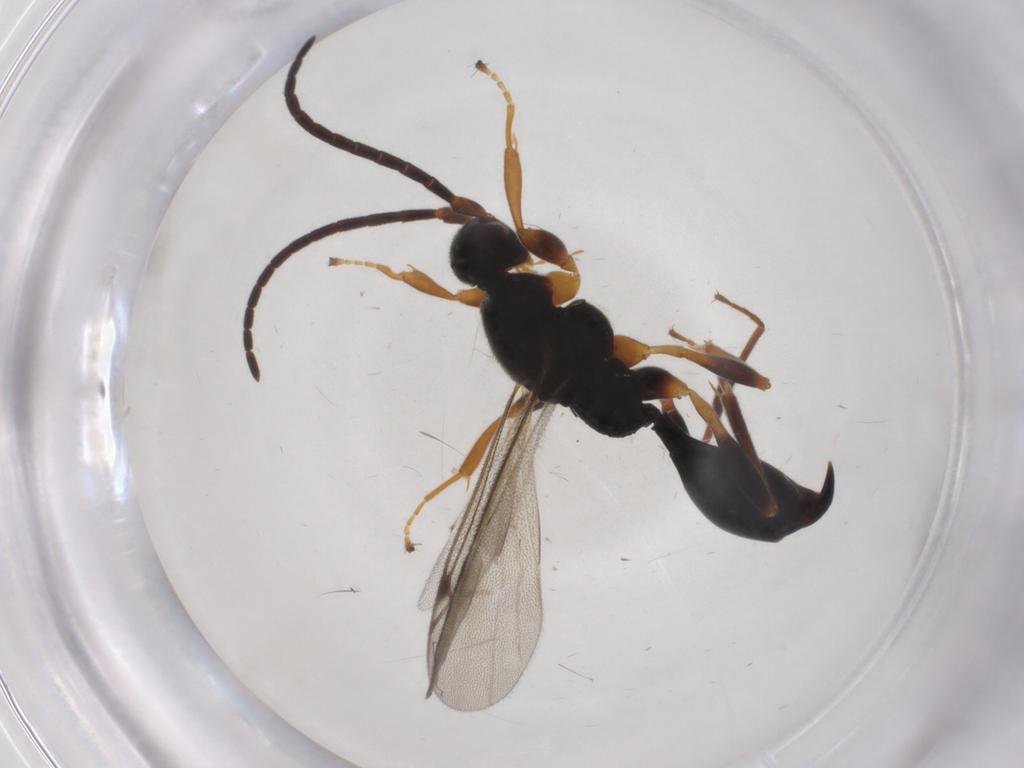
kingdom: Animalia
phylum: Arthropoda
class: Insecta
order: Hymenoptera
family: Proctotrupidae
